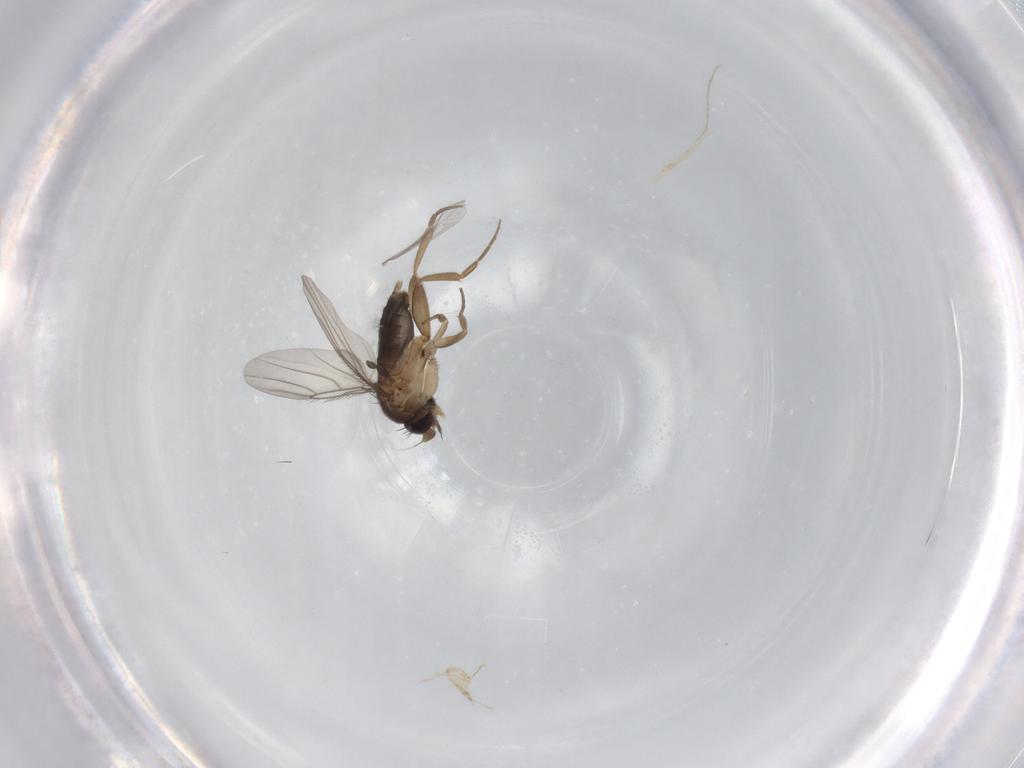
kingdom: Animalia
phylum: Arthropoda
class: Insecta
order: Diptera
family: Phoridae
